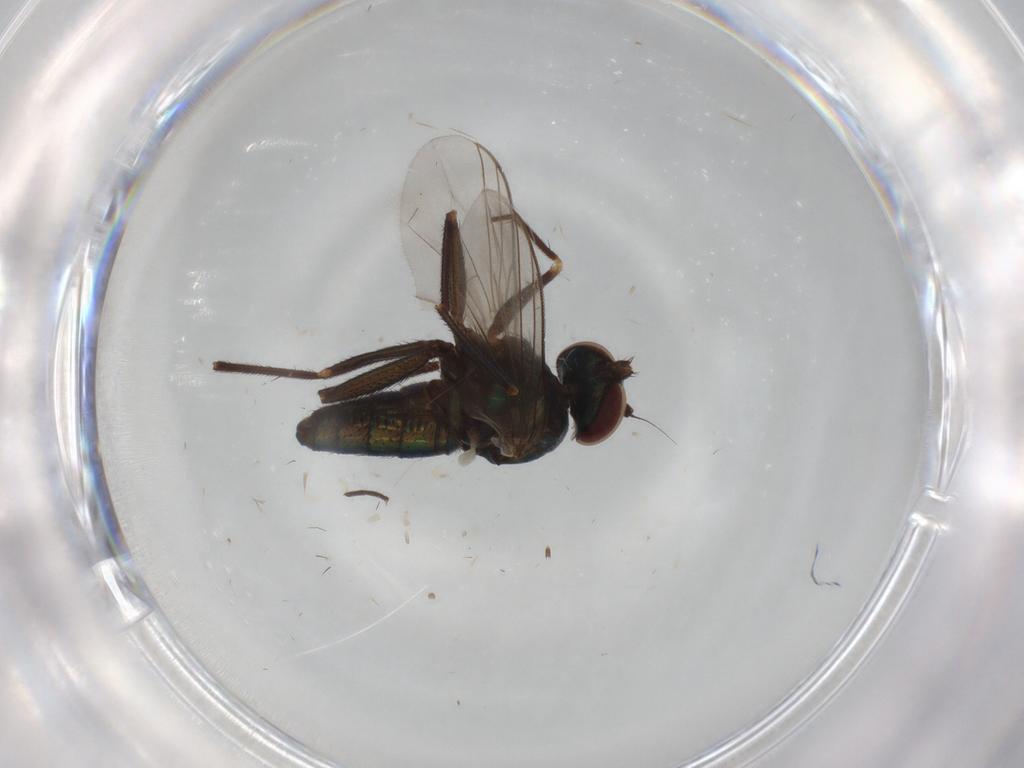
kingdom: Animalia
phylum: Arthropoda
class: Insecta
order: Diptera
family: Dolichopodidae
